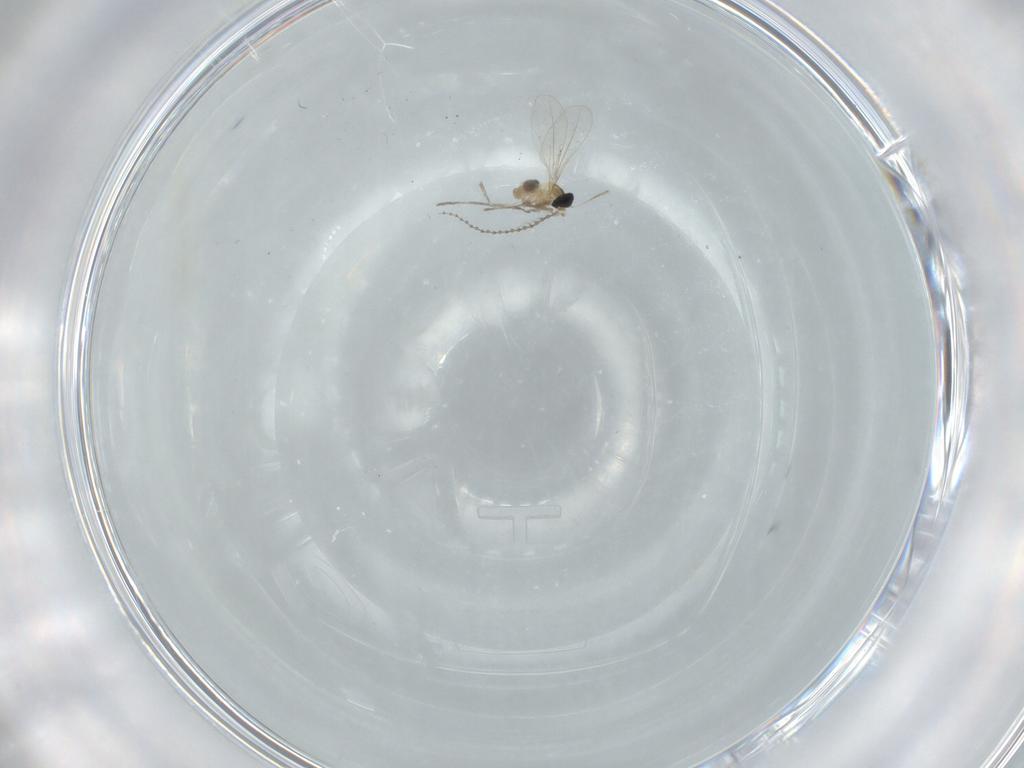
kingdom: Animalia
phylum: Arthropoda
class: Insecta
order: Diptera
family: Cecidomyiidae
